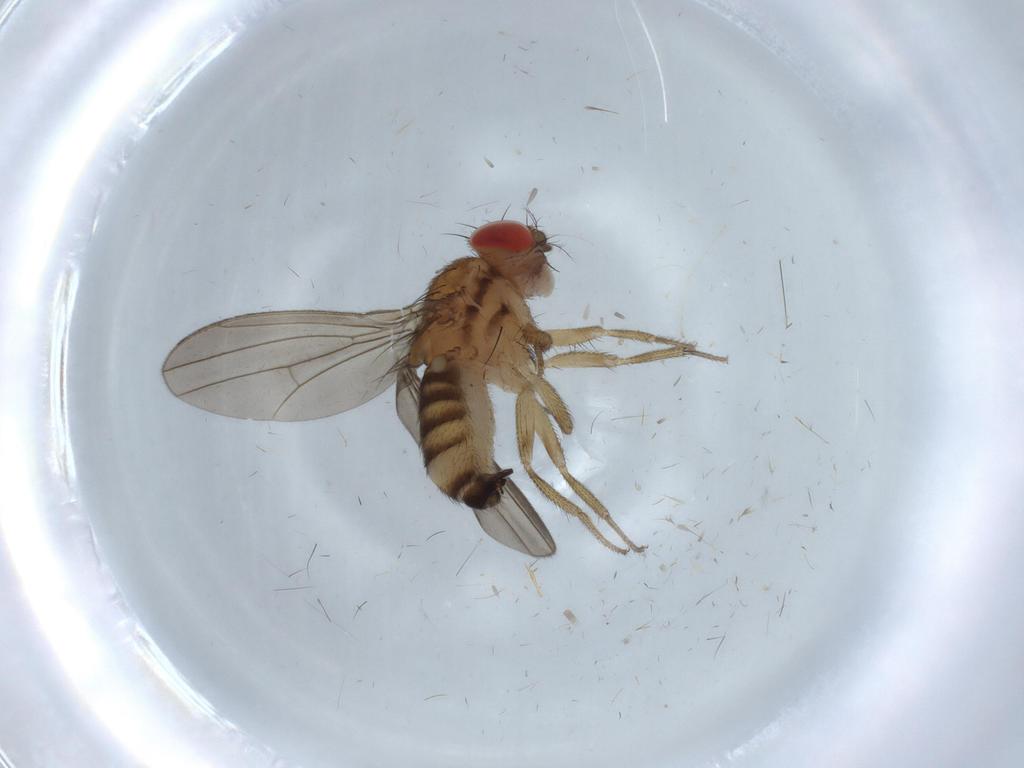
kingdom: Animalia
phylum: Arthropoda
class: Insecta
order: Diptera
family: Drosophilidae
